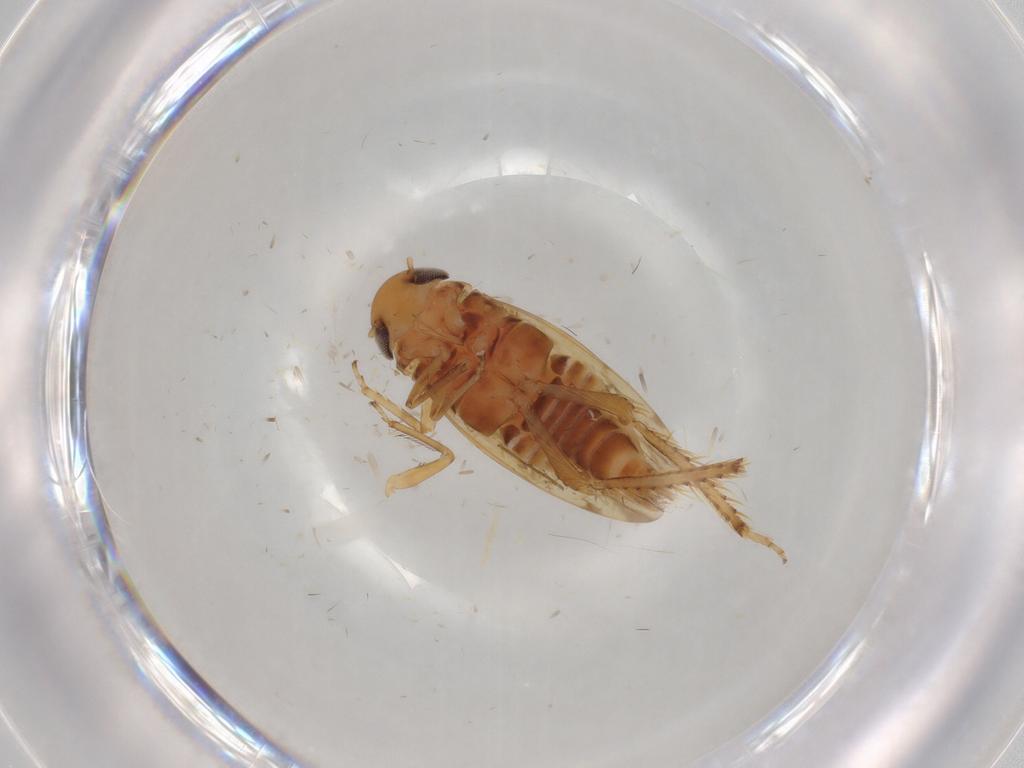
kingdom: Animalia
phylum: Arthropoda
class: Insecta
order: Hemiptera
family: Cicadellidae
